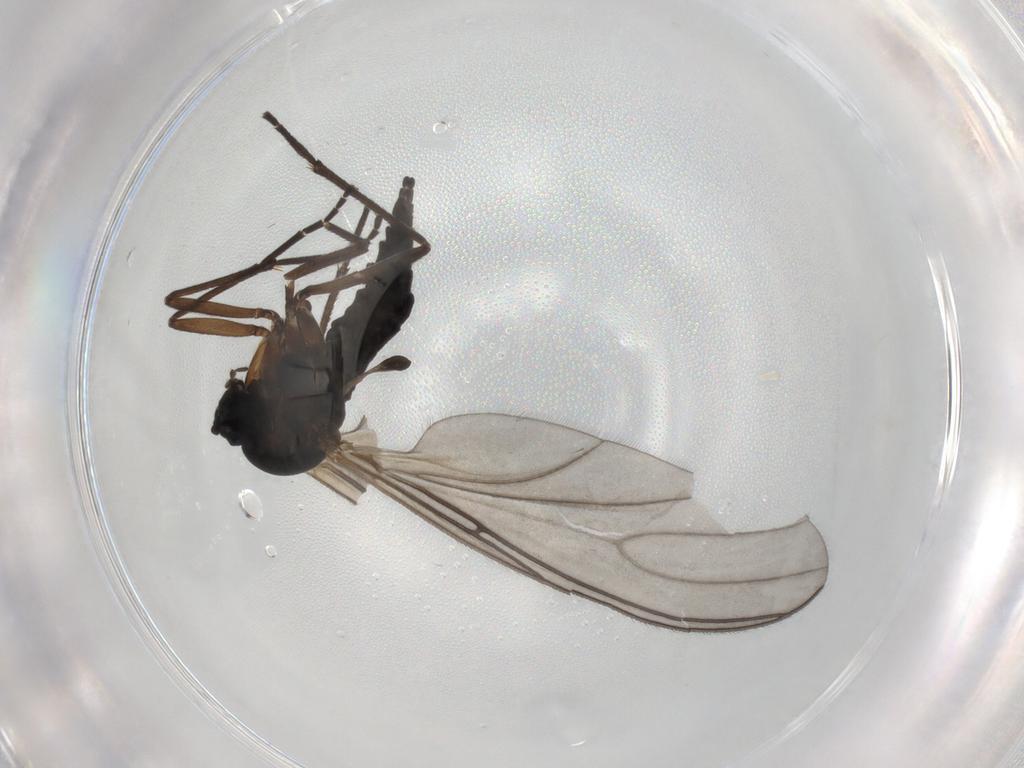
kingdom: Animalia
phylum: Arthropoda
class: Insecta
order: Diptera
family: Sciaridae
